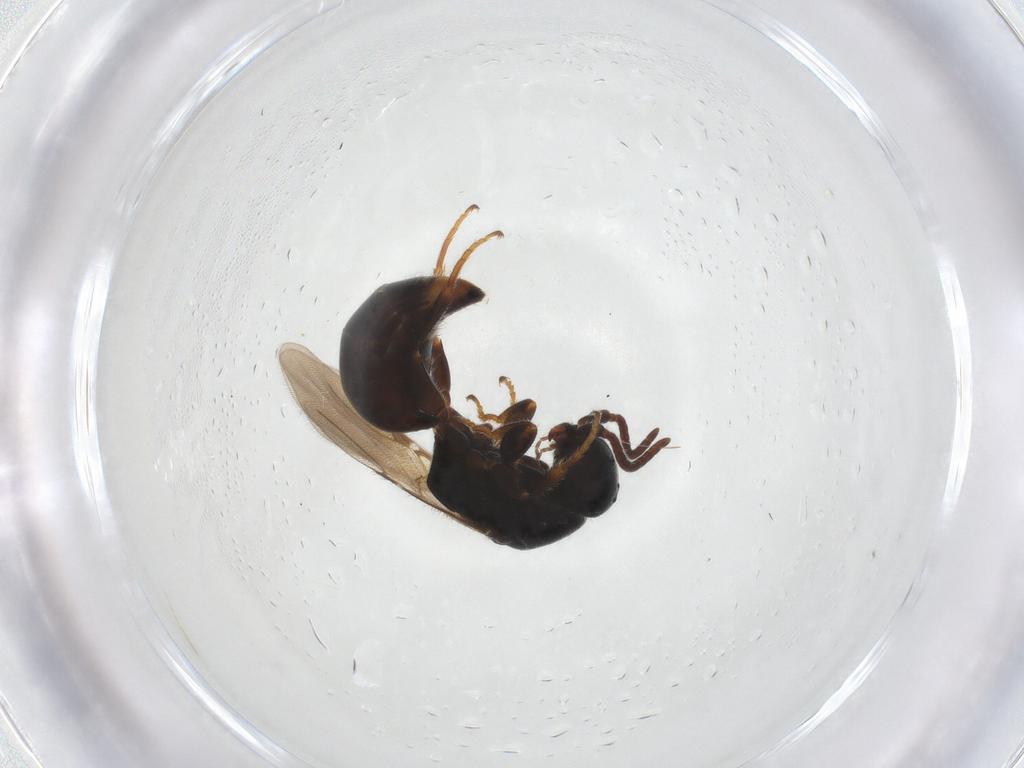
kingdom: Animalia
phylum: Arthropoda
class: Insecta
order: Hymenoptera
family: Bethylidae
